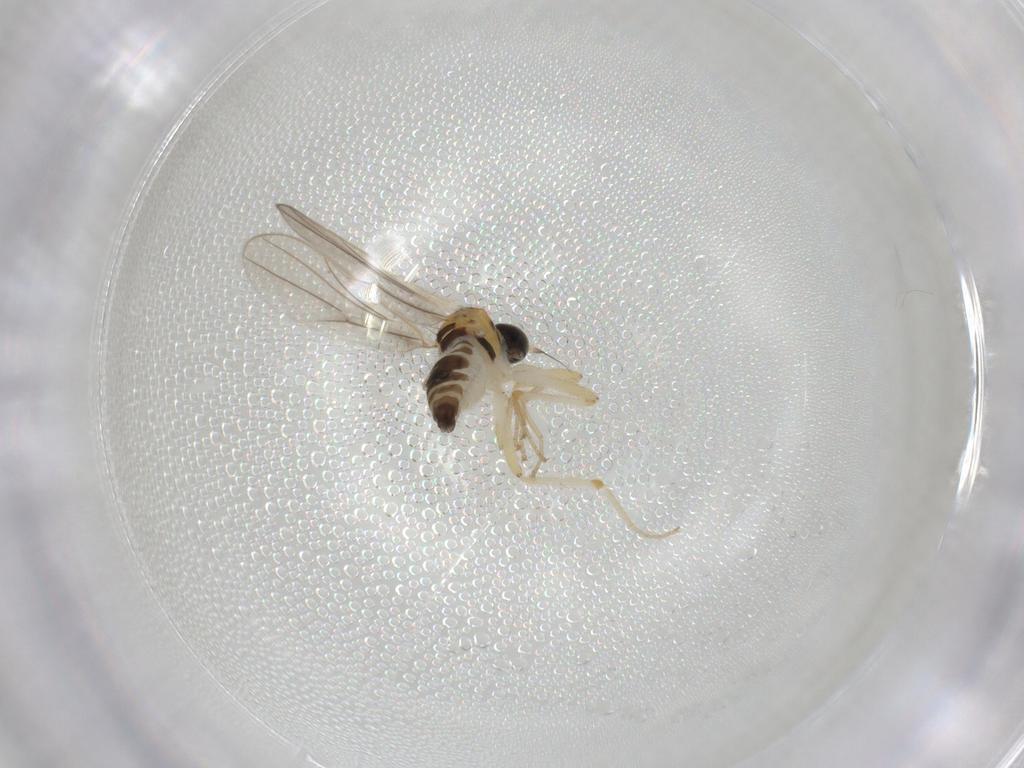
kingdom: Animalia
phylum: Arthropoda
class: Insecta
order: Diptera
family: Hybotidae
